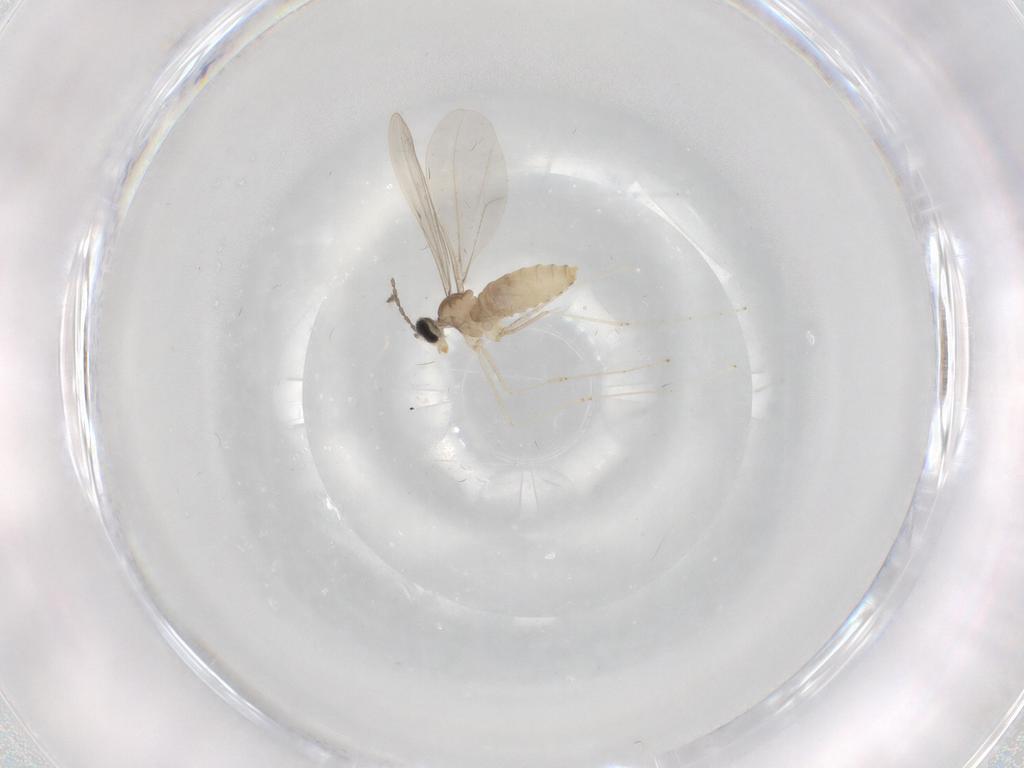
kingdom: Animalia
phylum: Arthropoda
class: Insecta
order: Diptera
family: Cecidomyiidae
